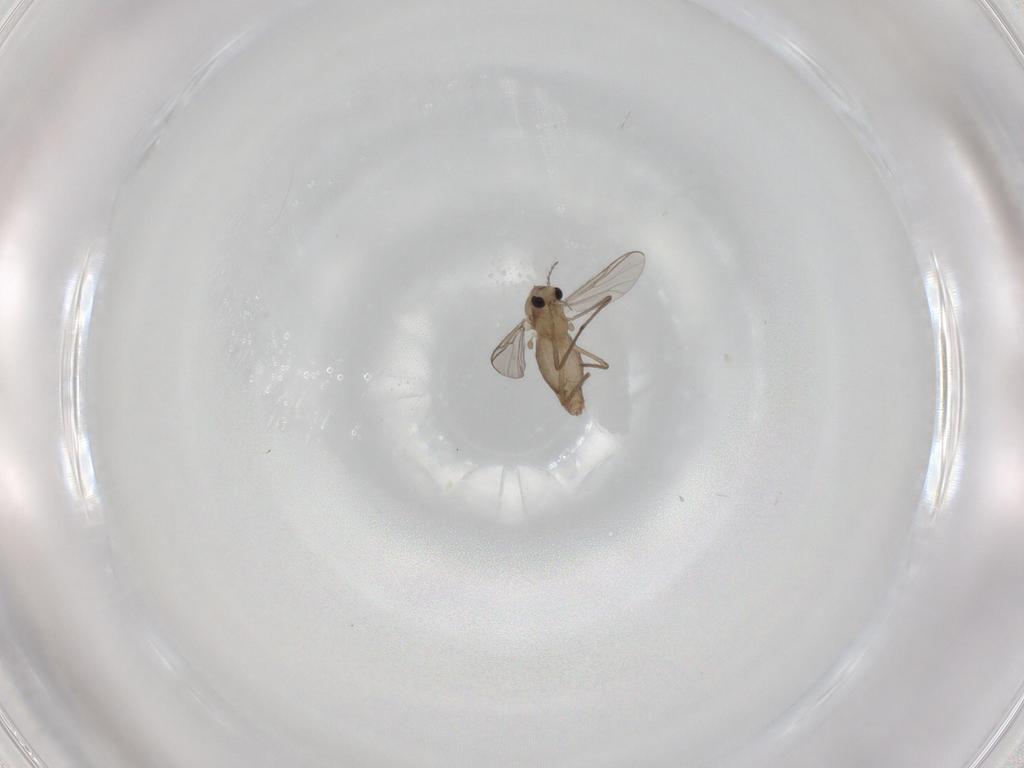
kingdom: Animalia
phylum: Arthropoda
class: Insecta
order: Diptera
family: Chironomidae
